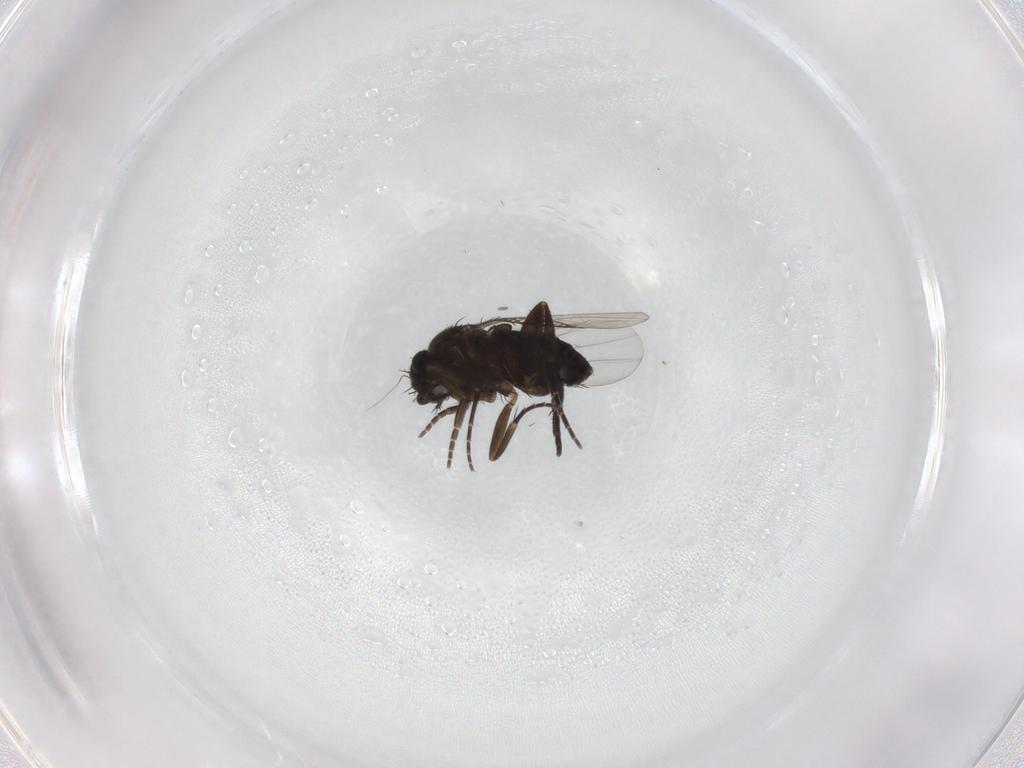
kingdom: Animalia
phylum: Arthropoda
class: Insecta
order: Diptera
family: Phoridae
